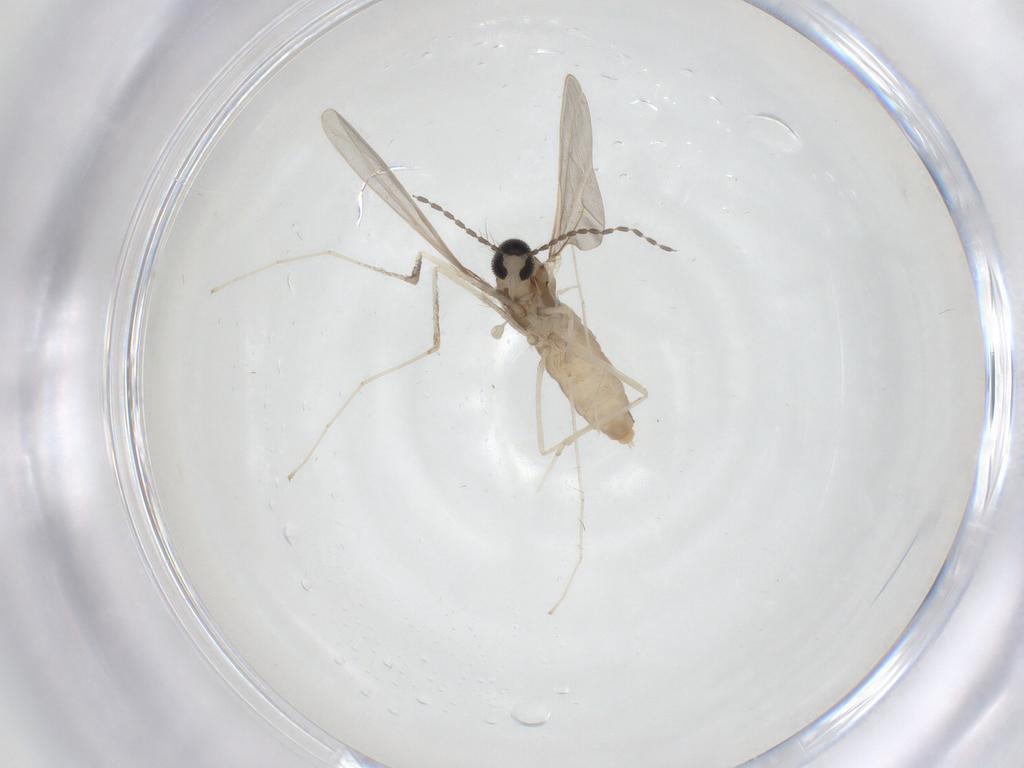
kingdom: Animalia
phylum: Arthropoda
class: Insecta
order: Diptera
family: Cecidomyiidae
